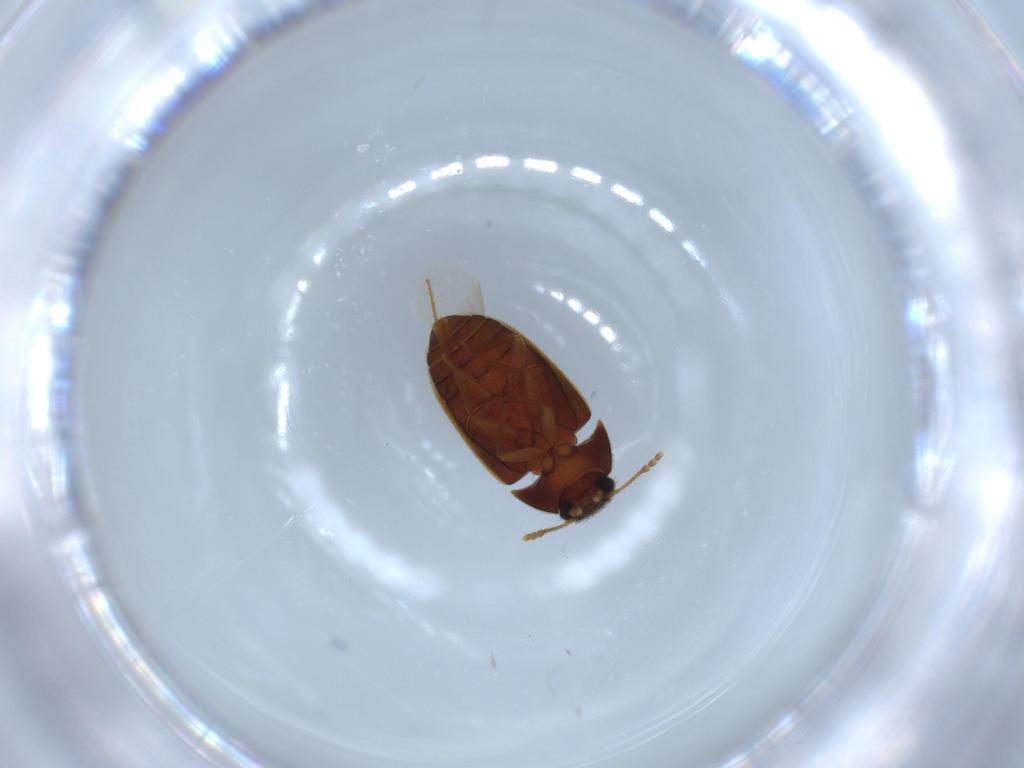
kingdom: Animalia
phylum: Arthropoda
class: Insecta
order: Coleoptera
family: Mycetophagidae
